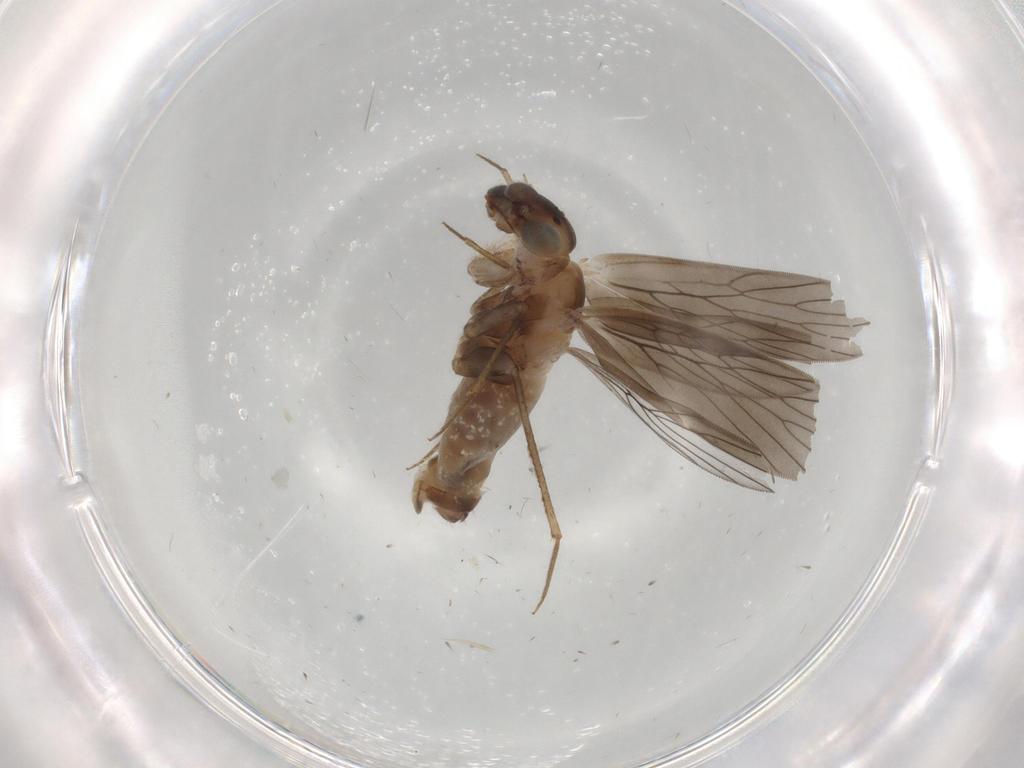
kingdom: Animalia
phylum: Arthropoda
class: Insecta
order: Psocodea
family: Lepidopsocidae
